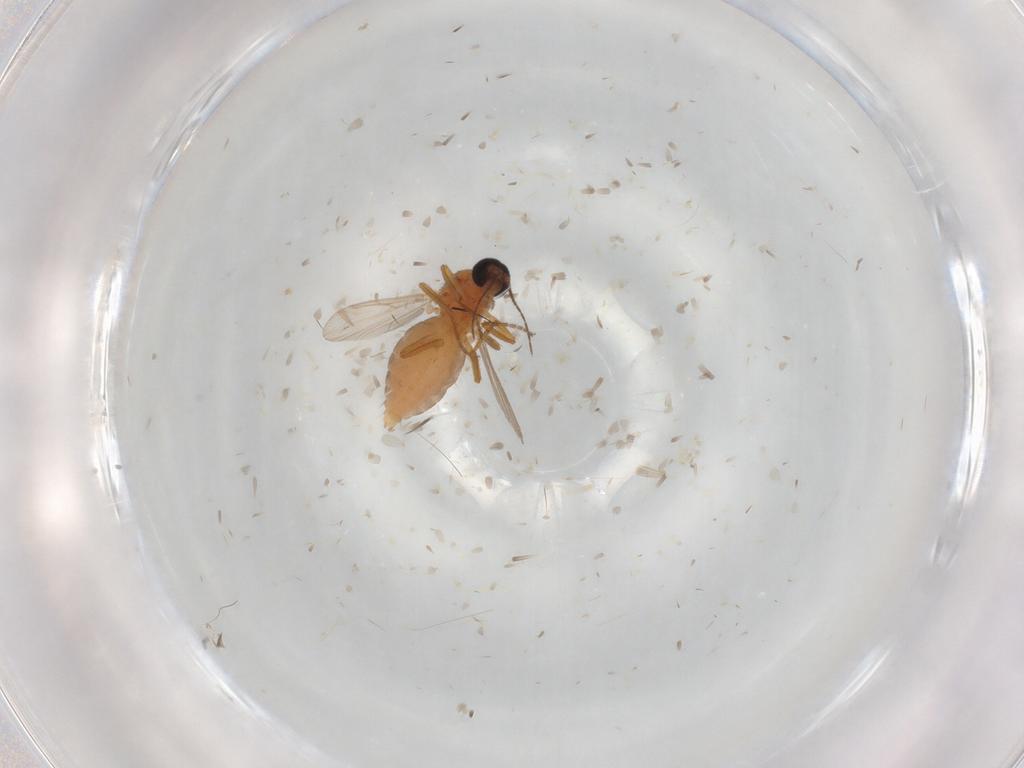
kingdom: Animalia
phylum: Arthropoda
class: Insecta
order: Diptera
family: Ceratopogonidae
